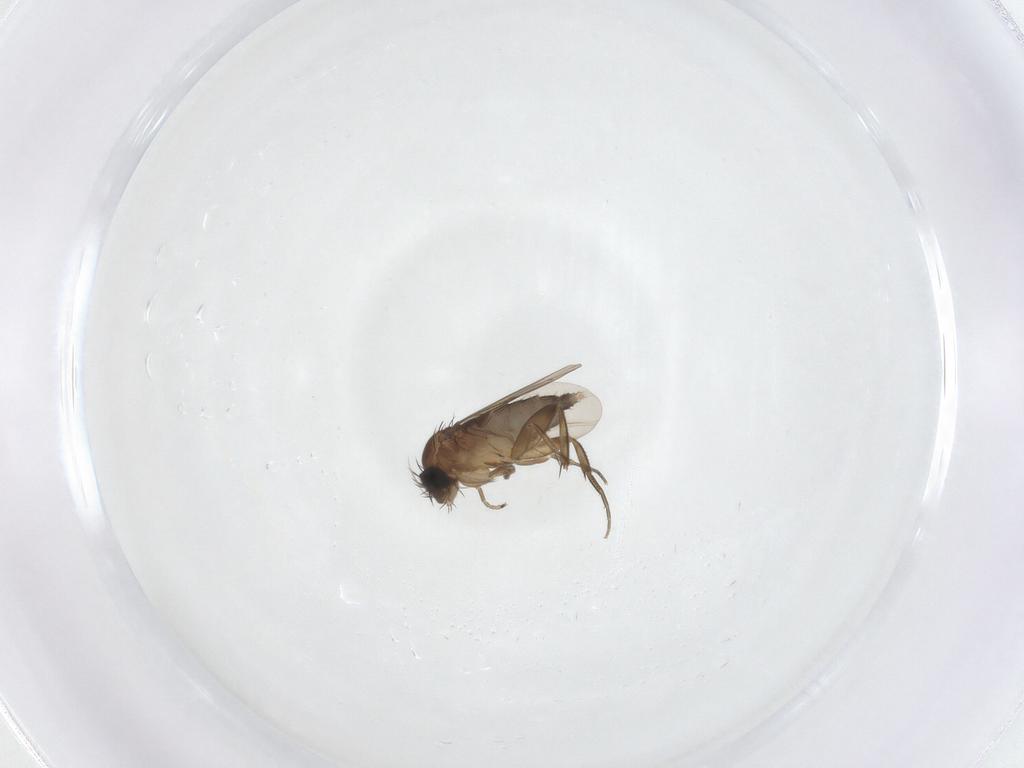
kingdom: Animalia
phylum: Arthropoda
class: Insecta
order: Diptera
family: Phoridae
